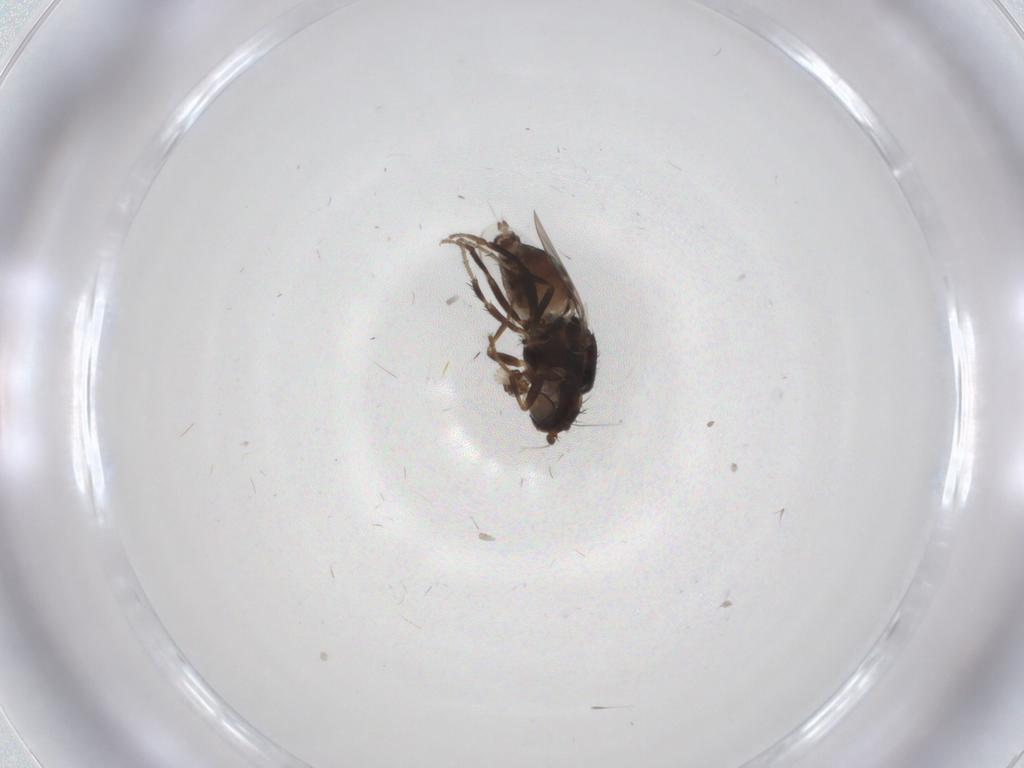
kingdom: Animalia
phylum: Arthropoda
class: Insecta
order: Diptera
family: Sphaeroceridae
